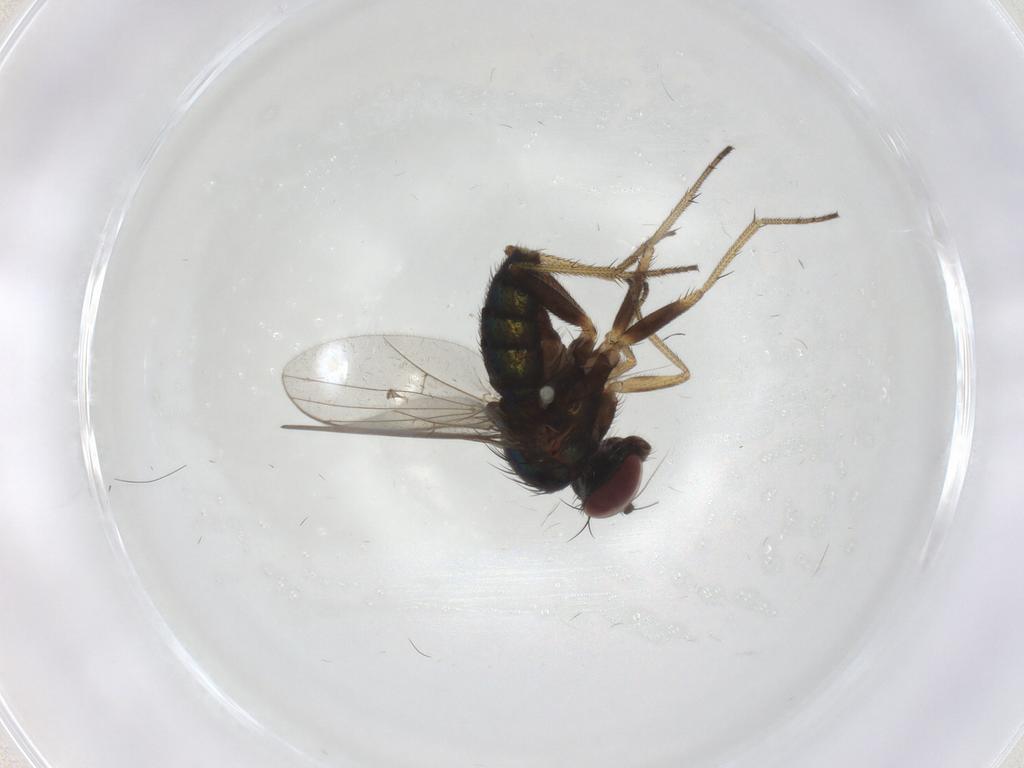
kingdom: Animalia
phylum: Arthropoda
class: Insecta
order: Diptera
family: Dolichopodidae
